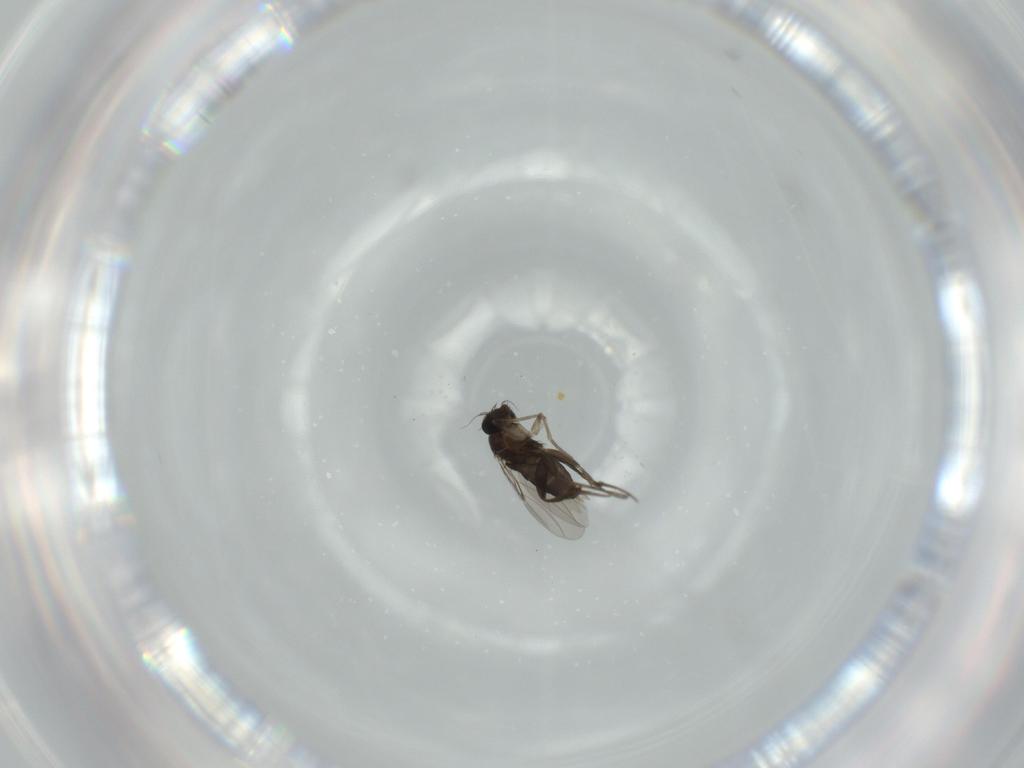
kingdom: Animalia
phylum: Arthropoda
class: Insecta
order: Diptera
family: Phoridae
